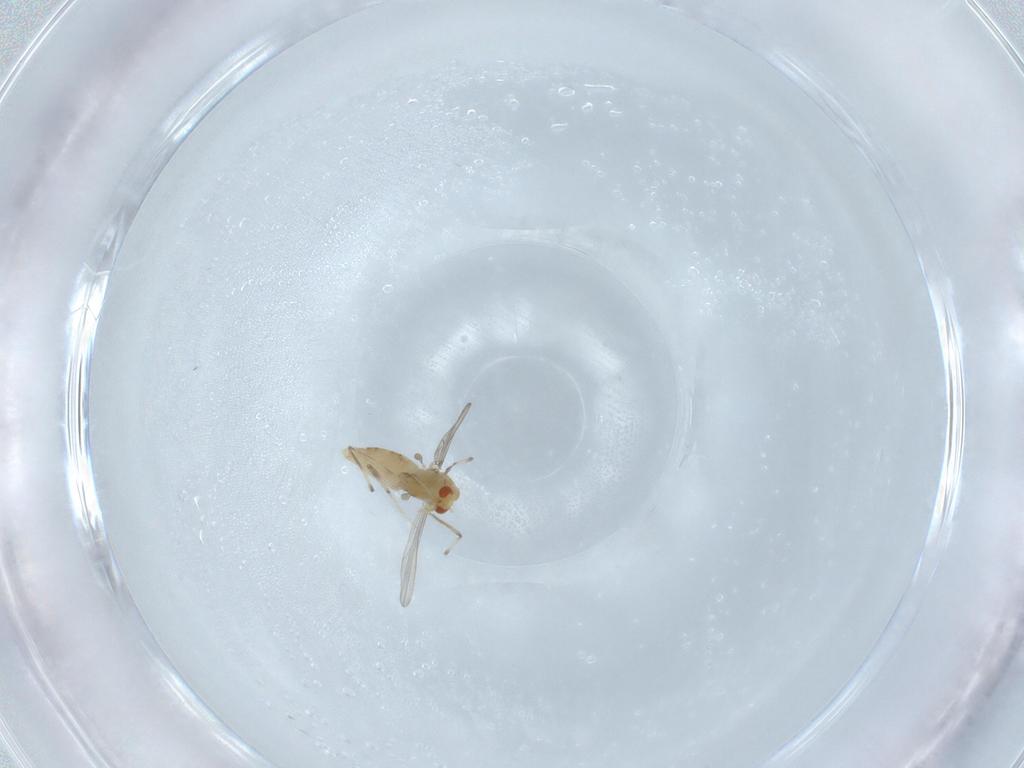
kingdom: Animalia
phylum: Arthropoda
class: Insecta
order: Diptera
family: Chironomidae
